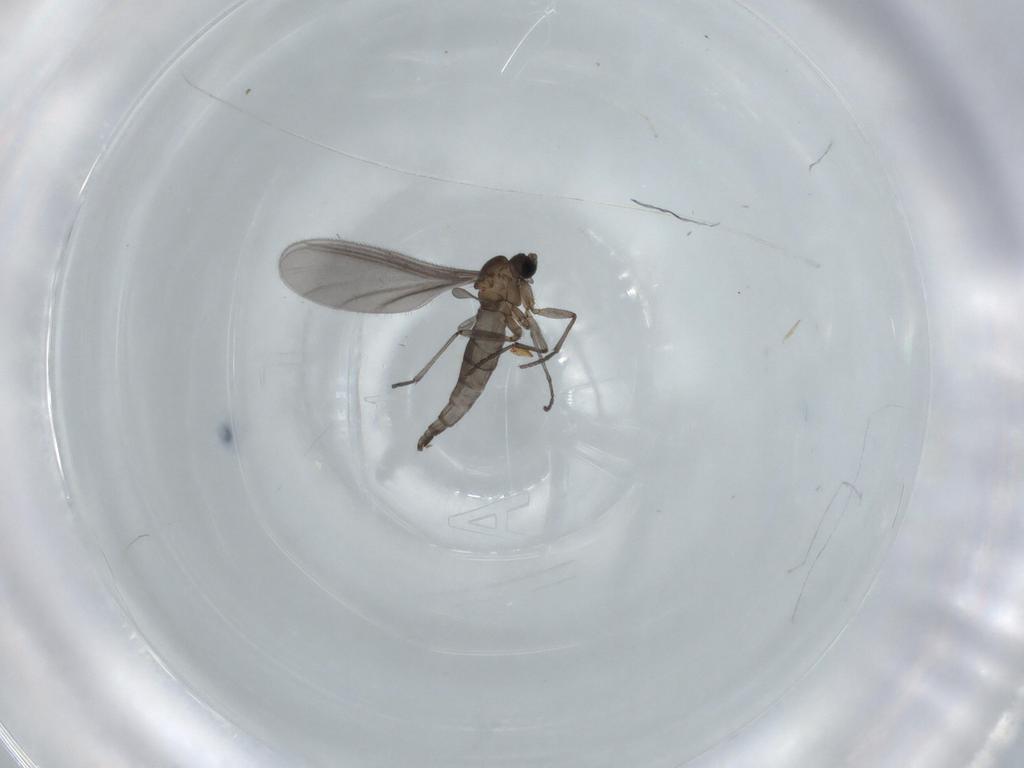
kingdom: Animalia
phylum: Arthropoda
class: Insecta
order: Diptera
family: Sciaridae
